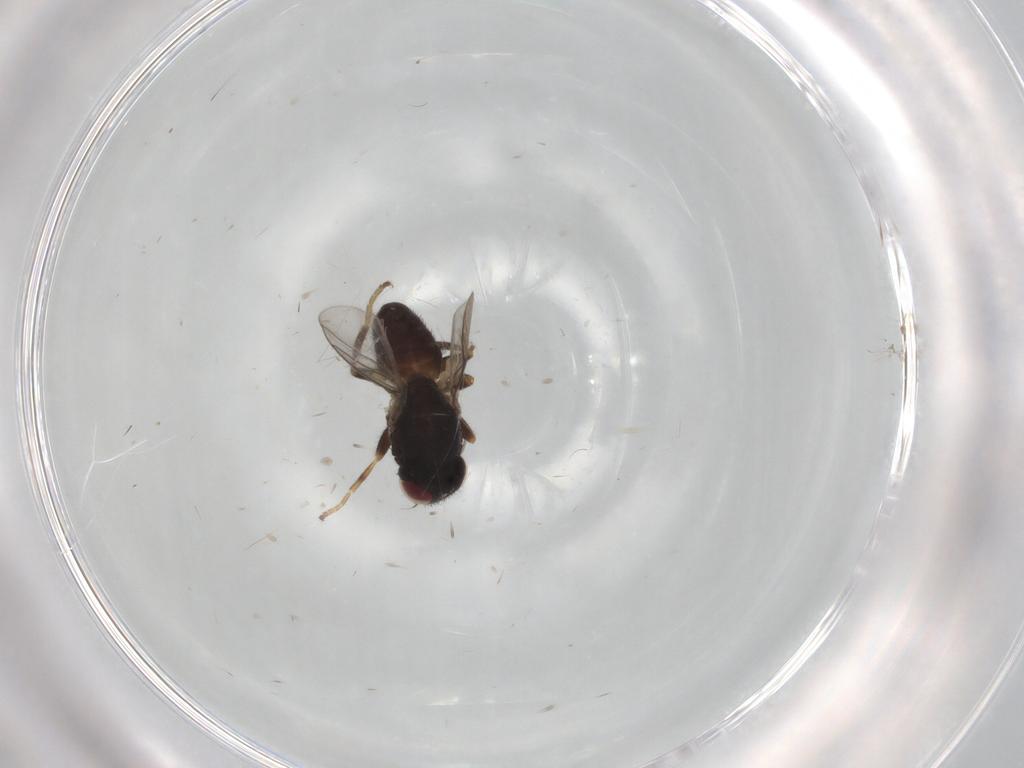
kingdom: Animalia
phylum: Arthropoda
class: Insecta
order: Diptera
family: Chloropidae
